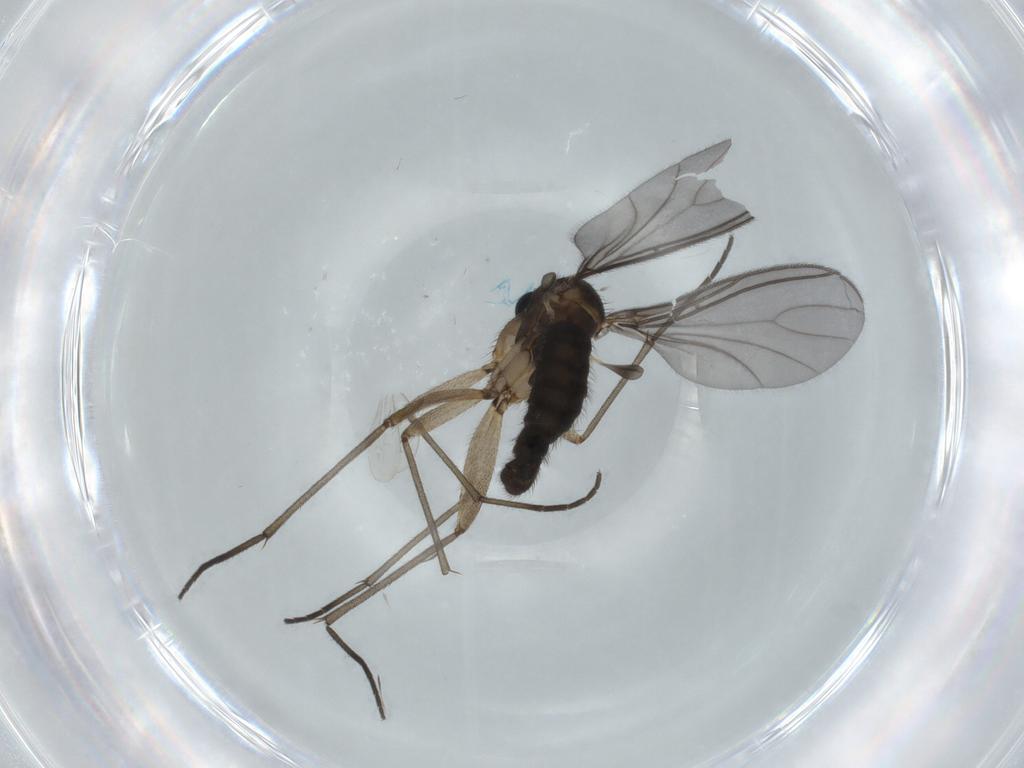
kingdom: Animalia
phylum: Arthropoda
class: Insecta
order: Diptera
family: Sciaridae
